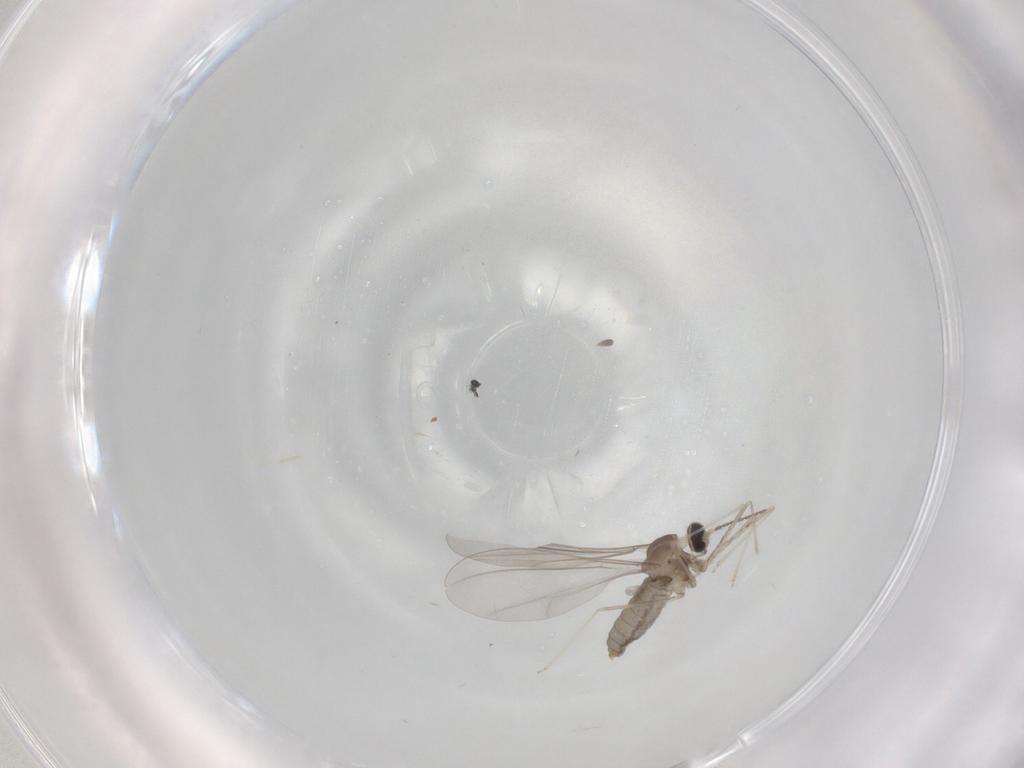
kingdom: Animalia
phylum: Arthropoda
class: Insecta
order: Diptera
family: Cecidomyiidae
